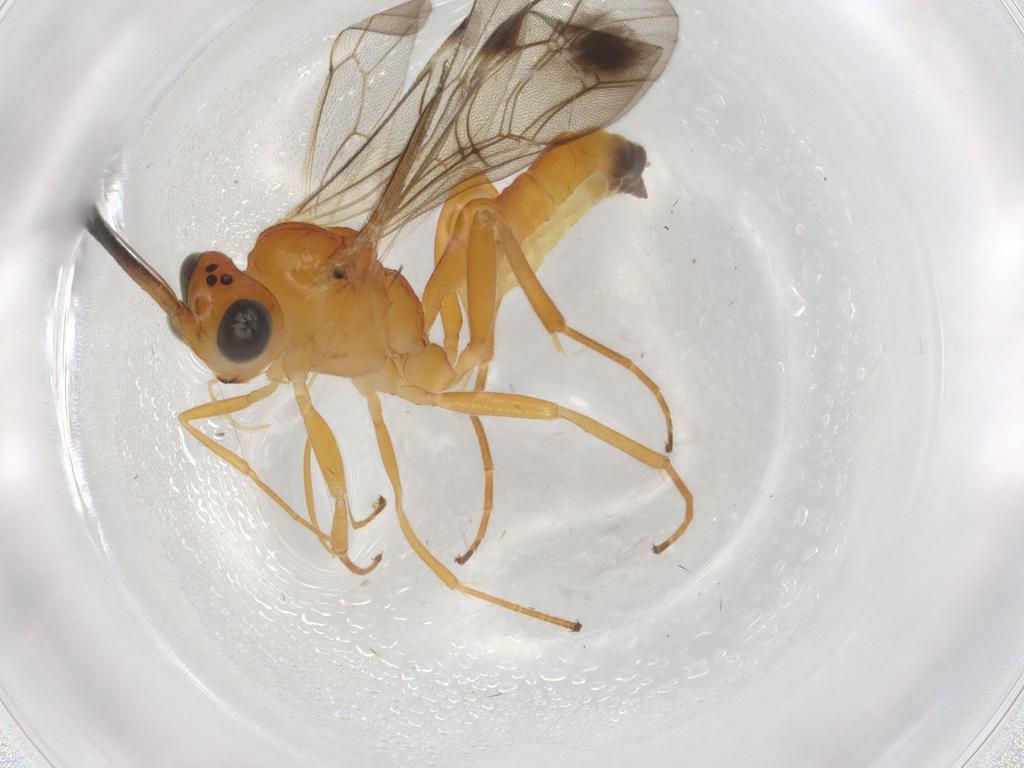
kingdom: Animalia
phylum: Arthropoda
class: Insecta
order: Hymenoptera
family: Ichneumonidae
